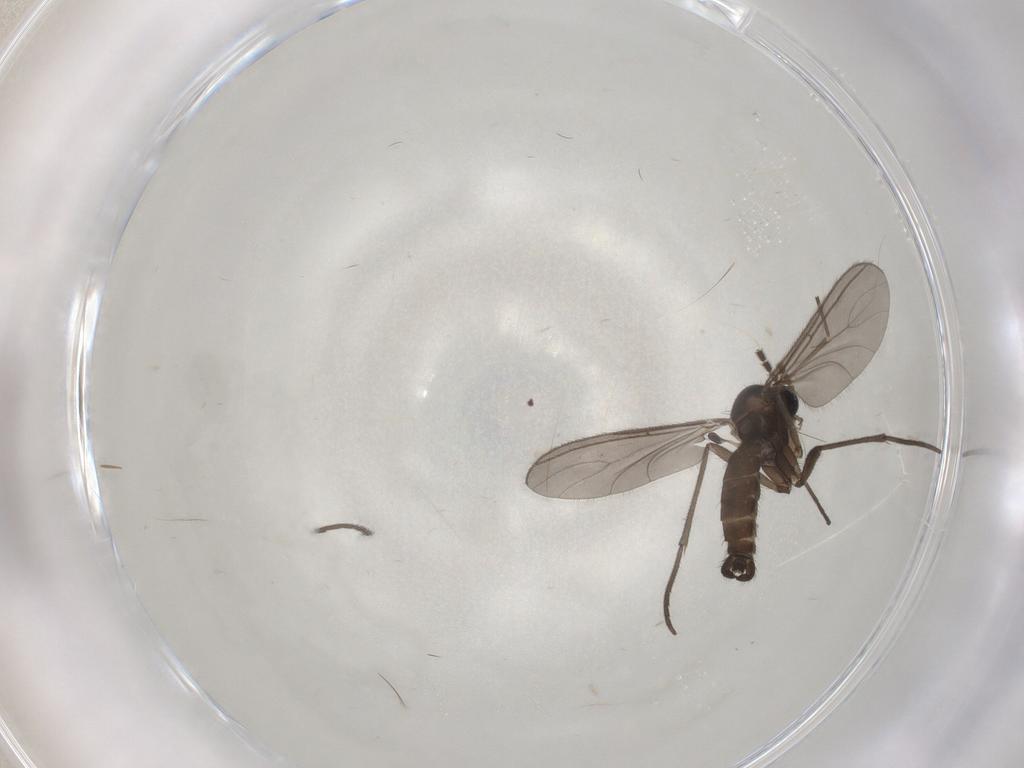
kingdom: Animalia
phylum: Arthropoda
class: Insecta
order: Diptera
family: Sciaridae
